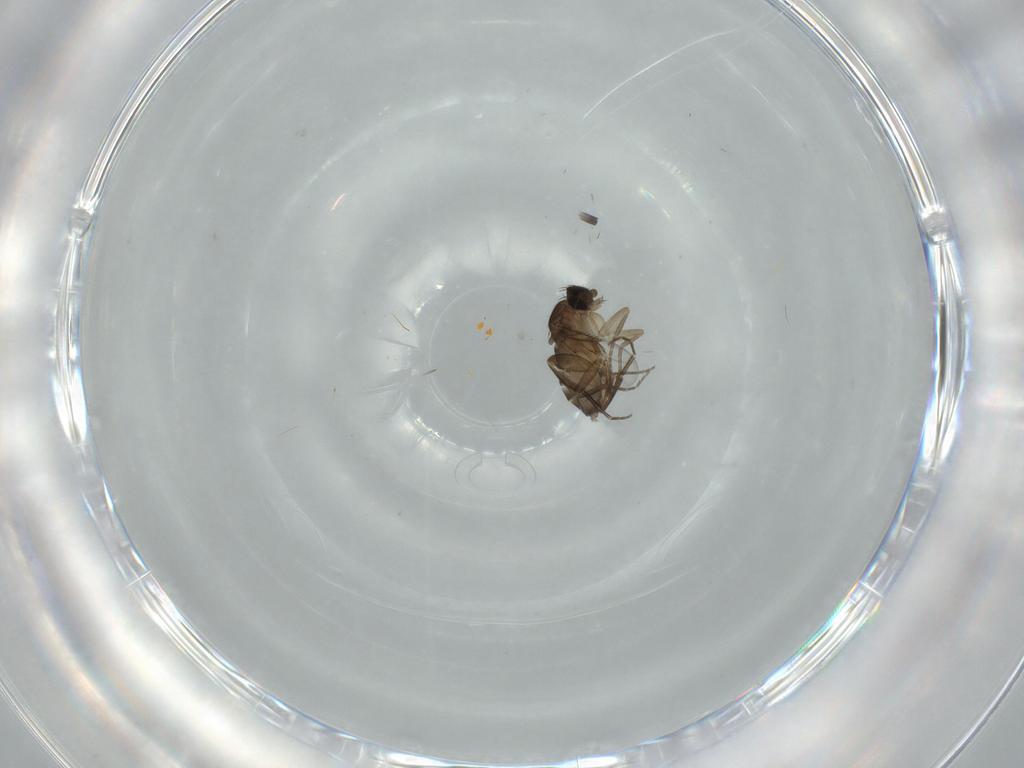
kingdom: Animalia
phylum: Arthropoda
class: Insecta
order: Diptera
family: Phoridae
